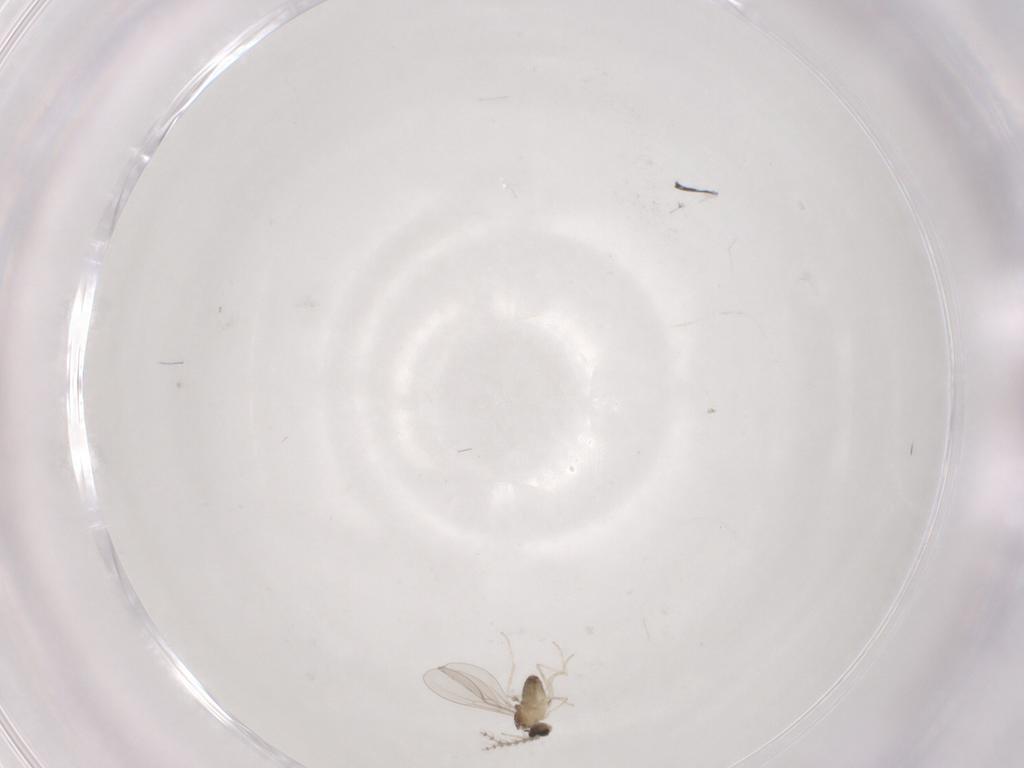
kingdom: Animalia
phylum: Arthropoda
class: Insecta
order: Diptera
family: Cecidomyiidae
